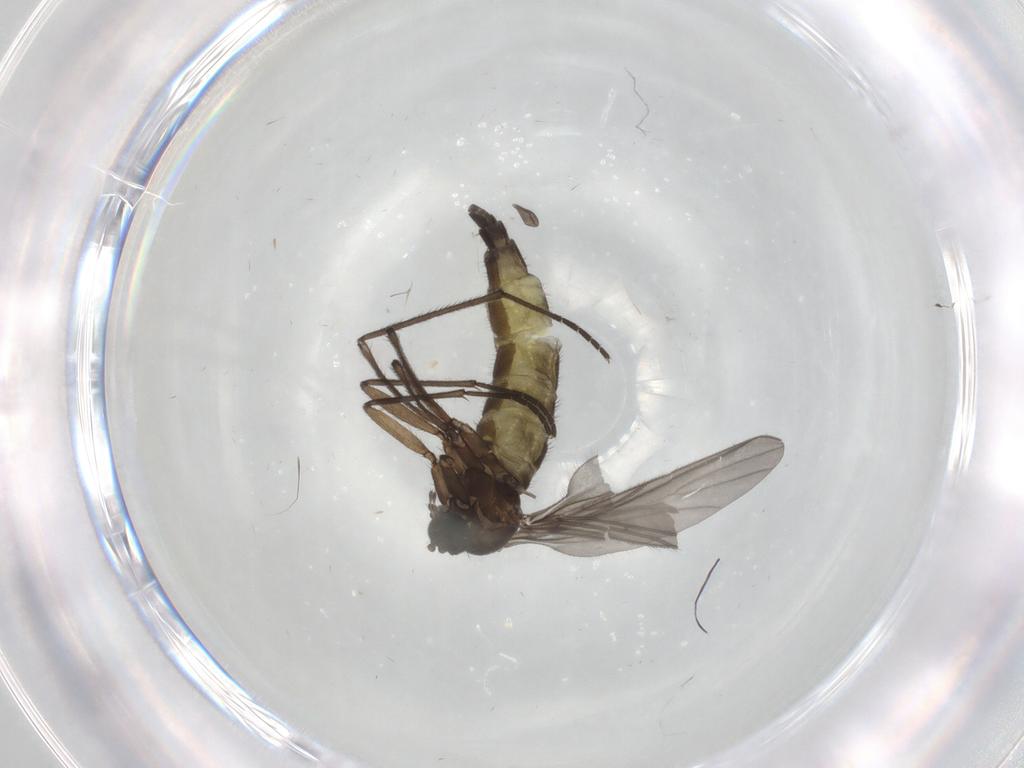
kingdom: Animalia
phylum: Arthropoda
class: Insecta
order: Diptera
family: Sciaridae
